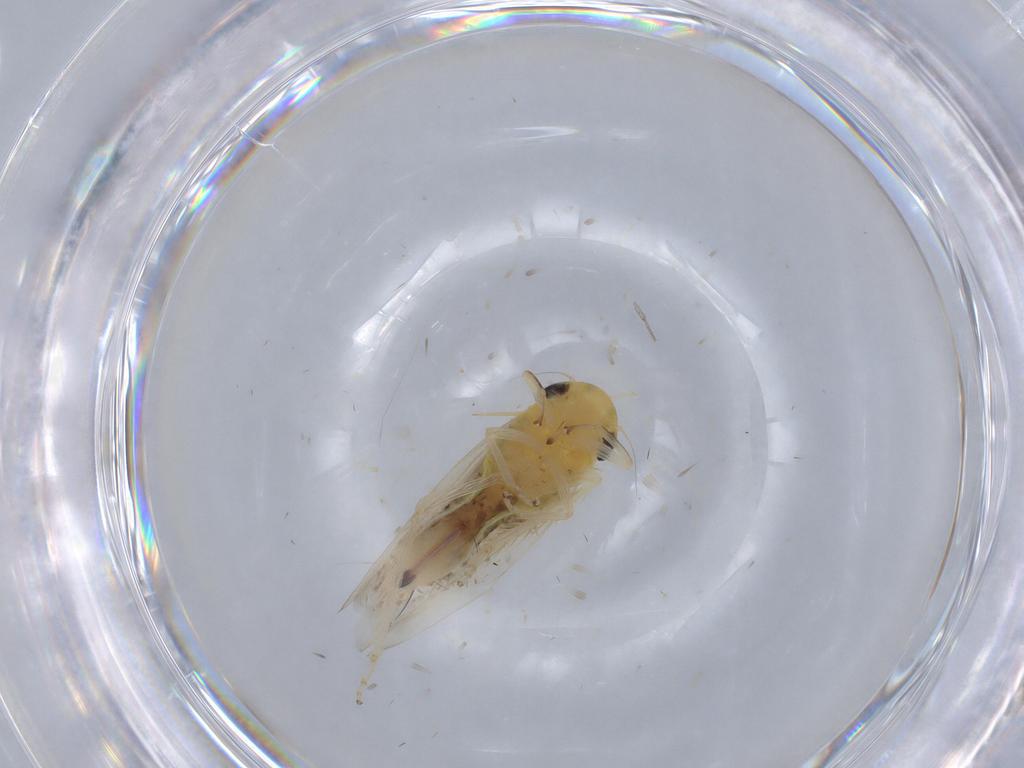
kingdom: Animalia
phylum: Arthropoda
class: Insecta
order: Hemiptera
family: Cicadellidae
